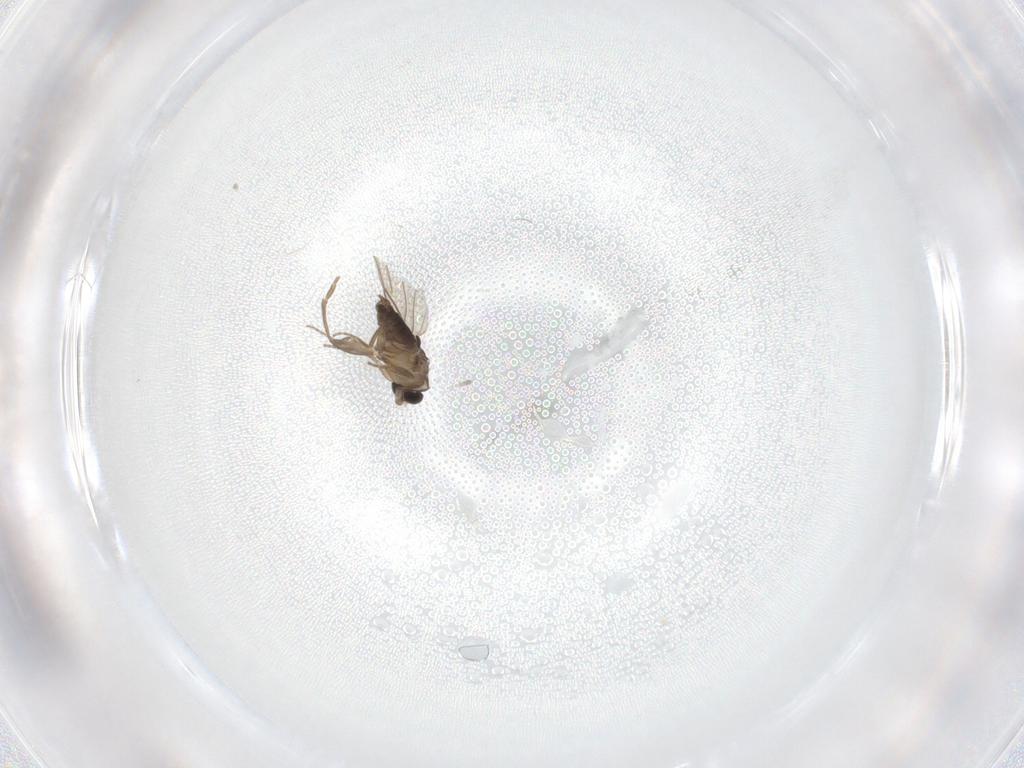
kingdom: Animalia
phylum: Arthropoda
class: Insecta
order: Diptera
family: Phoridae
